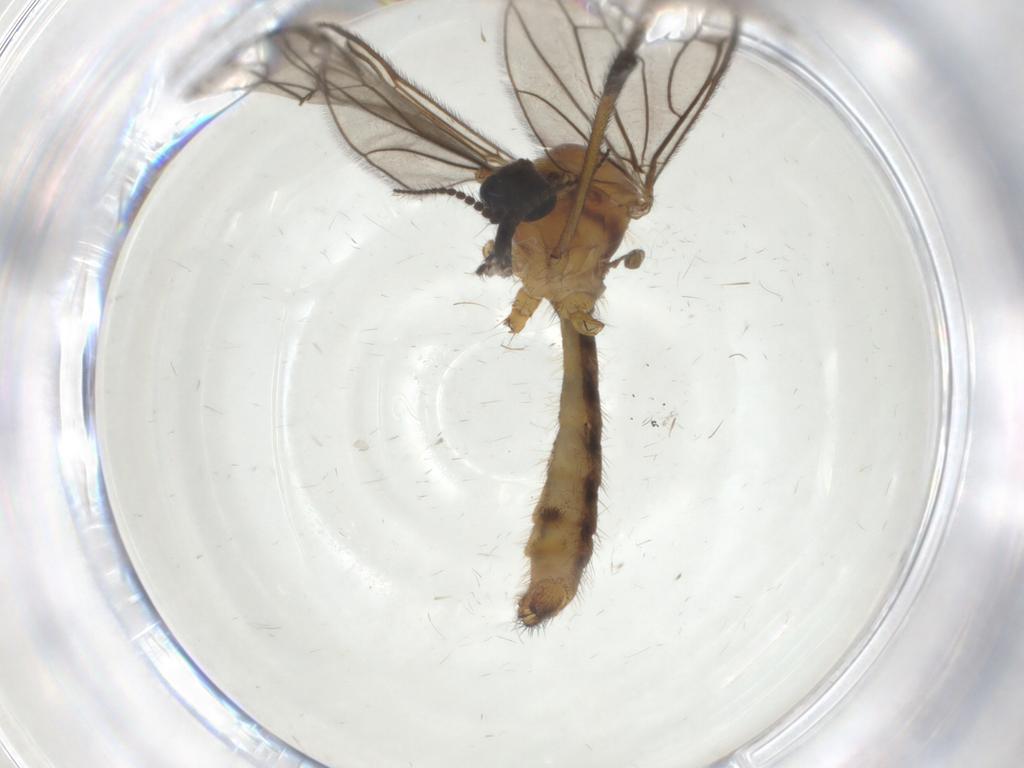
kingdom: Animalia
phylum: Arthropoda
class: Insecta
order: Diptera
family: Limoniidae
